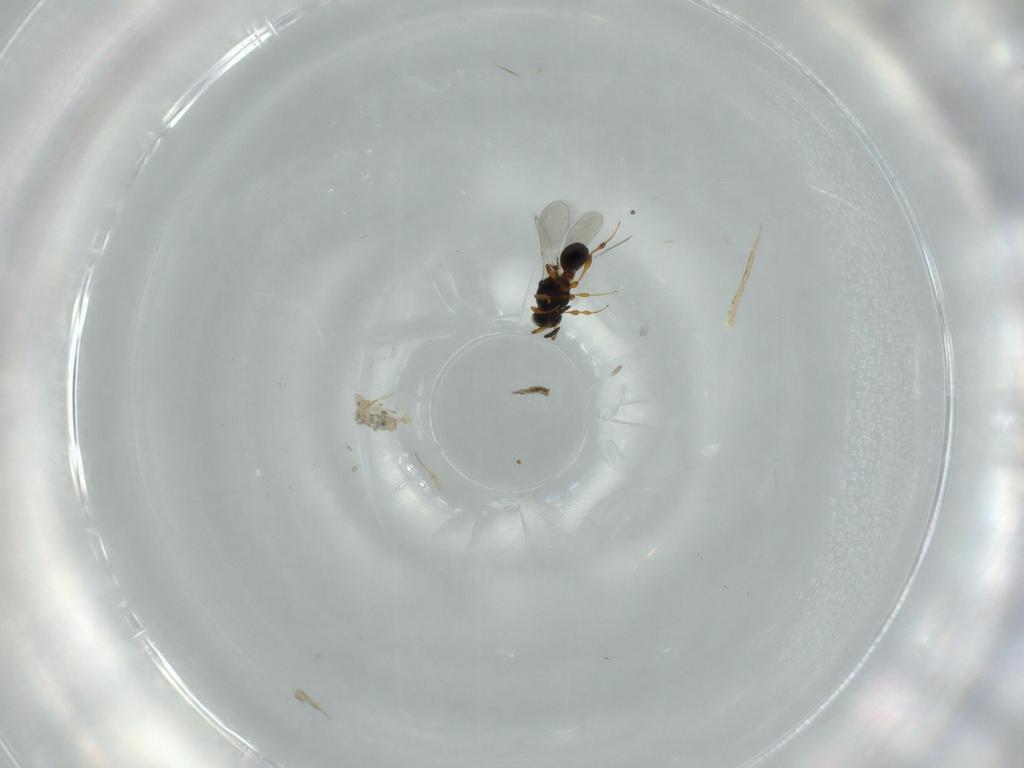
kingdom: Animalia
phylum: Arthropoda
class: Insecta
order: Hymenoptera
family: Platygastridae
